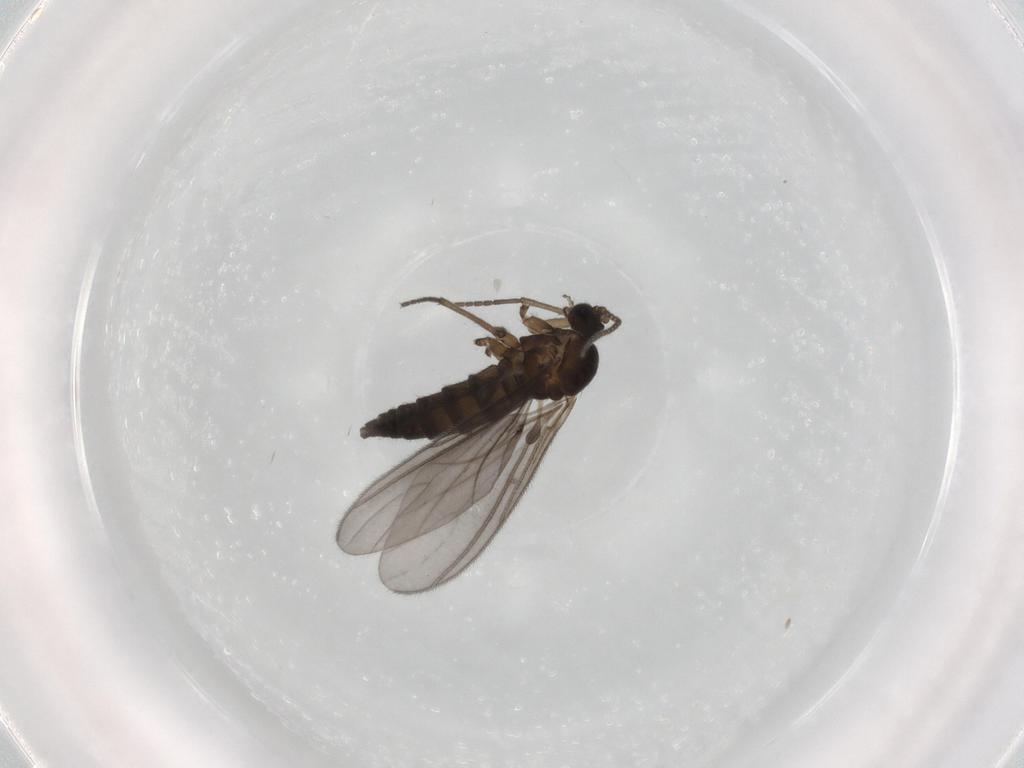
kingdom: Animalia
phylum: Arthropoda
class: Insecta
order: Diptera
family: Sciaridae
